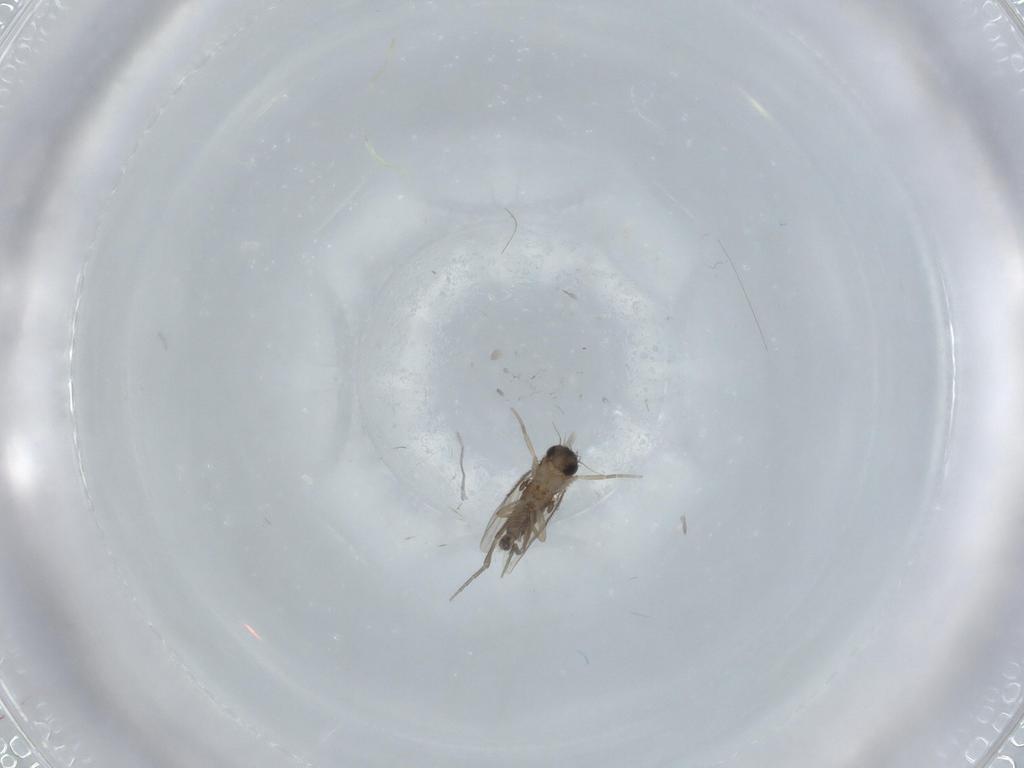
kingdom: Animalia
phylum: Arthropoda
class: Insecta
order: Diptera
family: Phoridae
